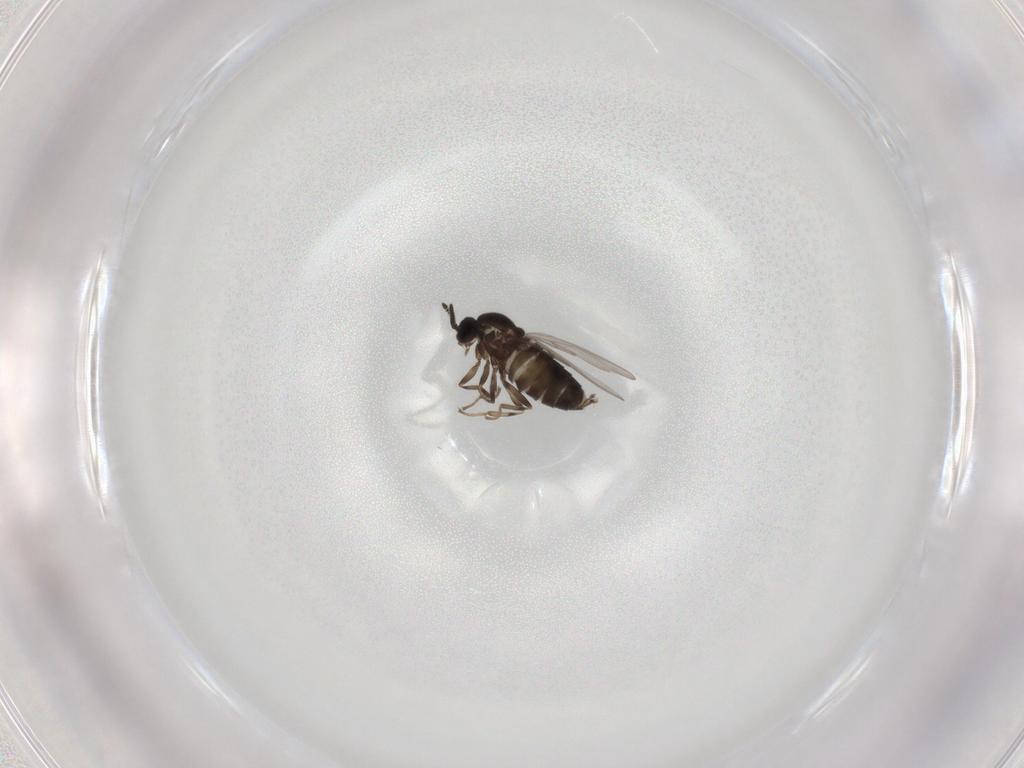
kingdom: Animalia
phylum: Arthropoda
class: Insecta
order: Diptera
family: Scatopsidae
